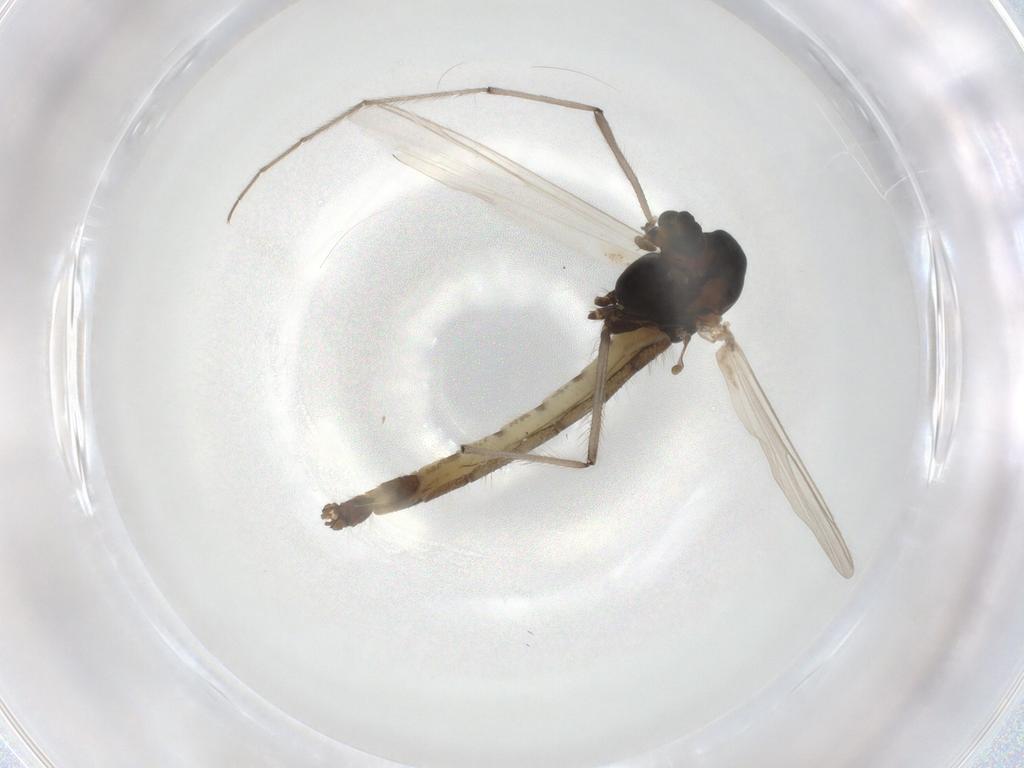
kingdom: Animalia
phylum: Arthropoda
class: Insecta
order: Diptera
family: Chironomidae
